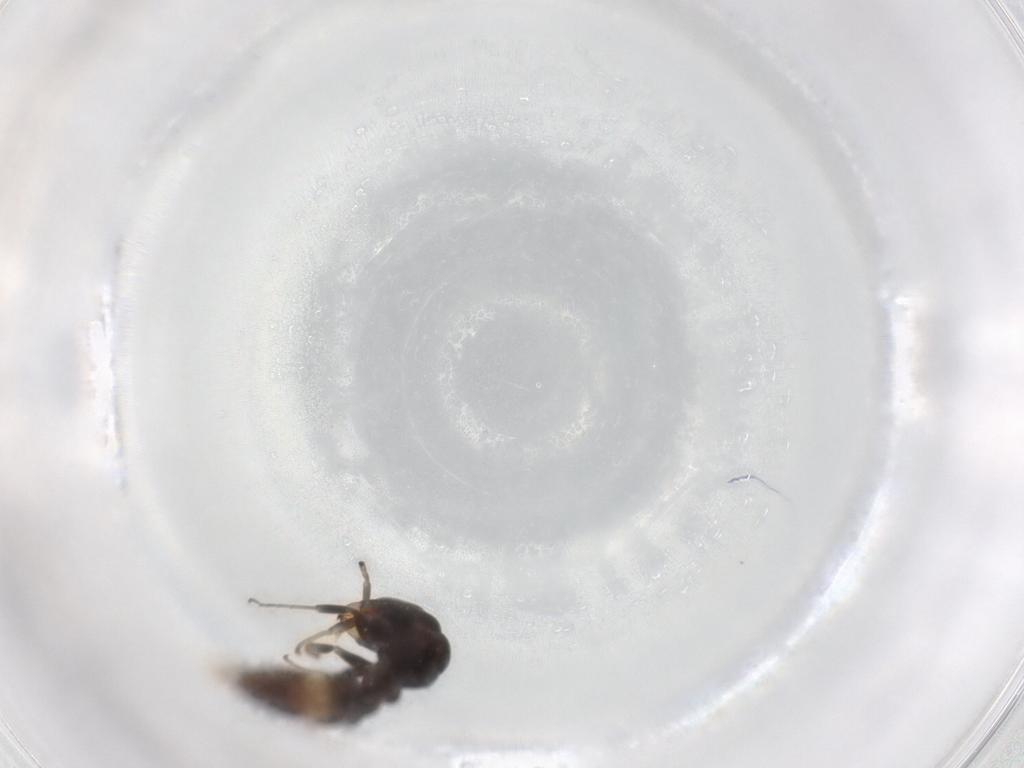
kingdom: Animalia
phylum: Arthropoda
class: Insecta
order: Hymenoptera
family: Formicidae
